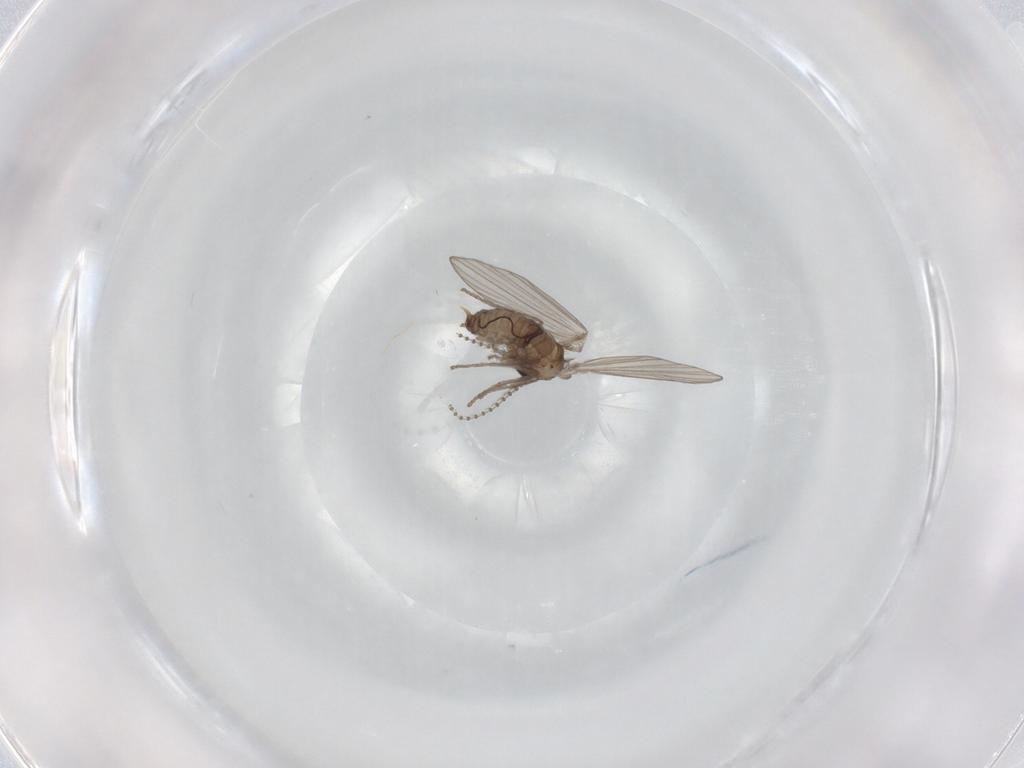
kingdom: Animalia
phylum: Arthropoda
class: Insecta
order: Diptera
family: Psychodidae
